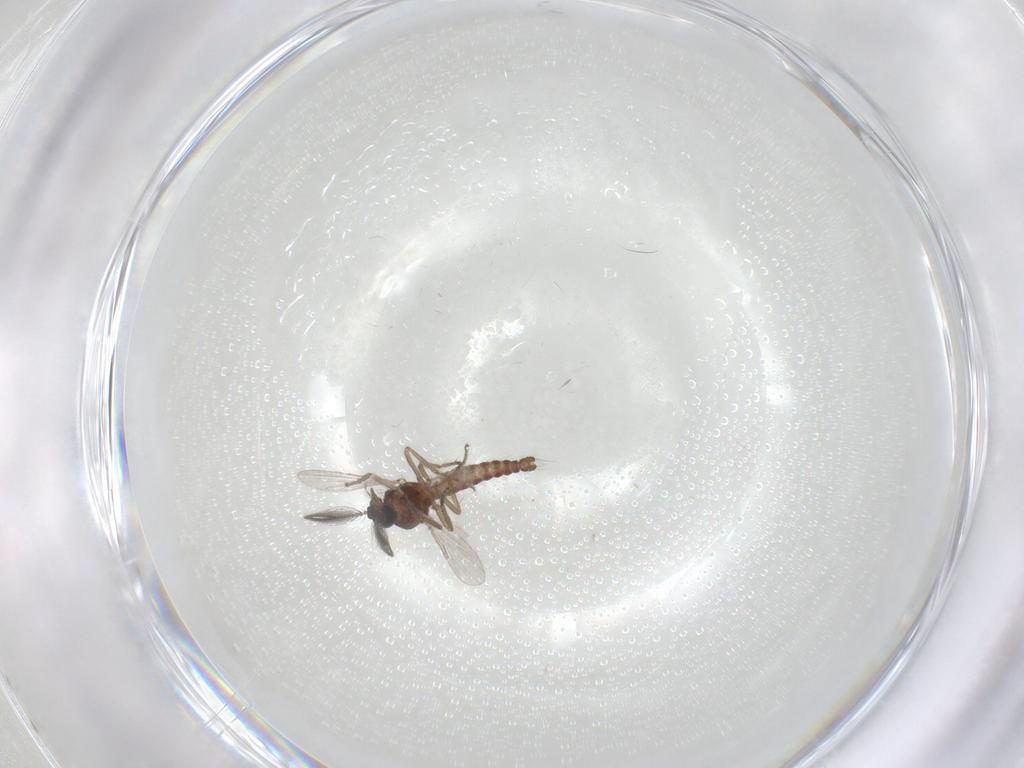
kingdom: Animalia
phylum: Arthropoda
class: Insecta
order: Diptera
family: Ceratopogonidae
